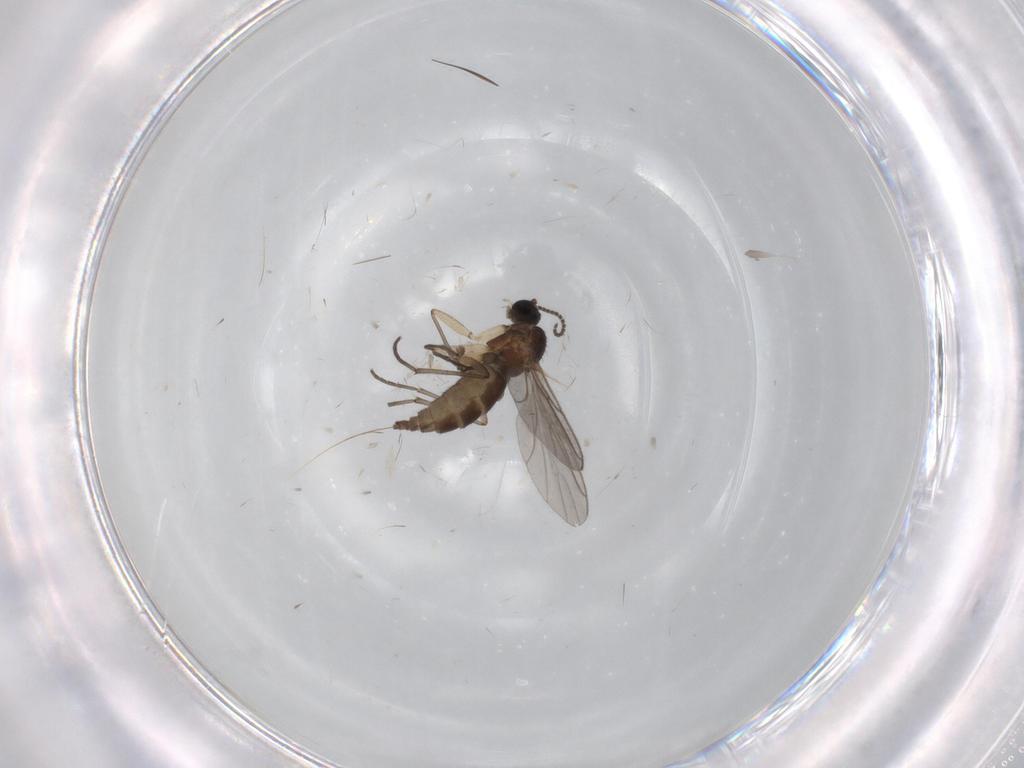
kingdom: Animalia
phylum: Arthropoda
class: Insecta
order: Diptera
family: Sciaridae
